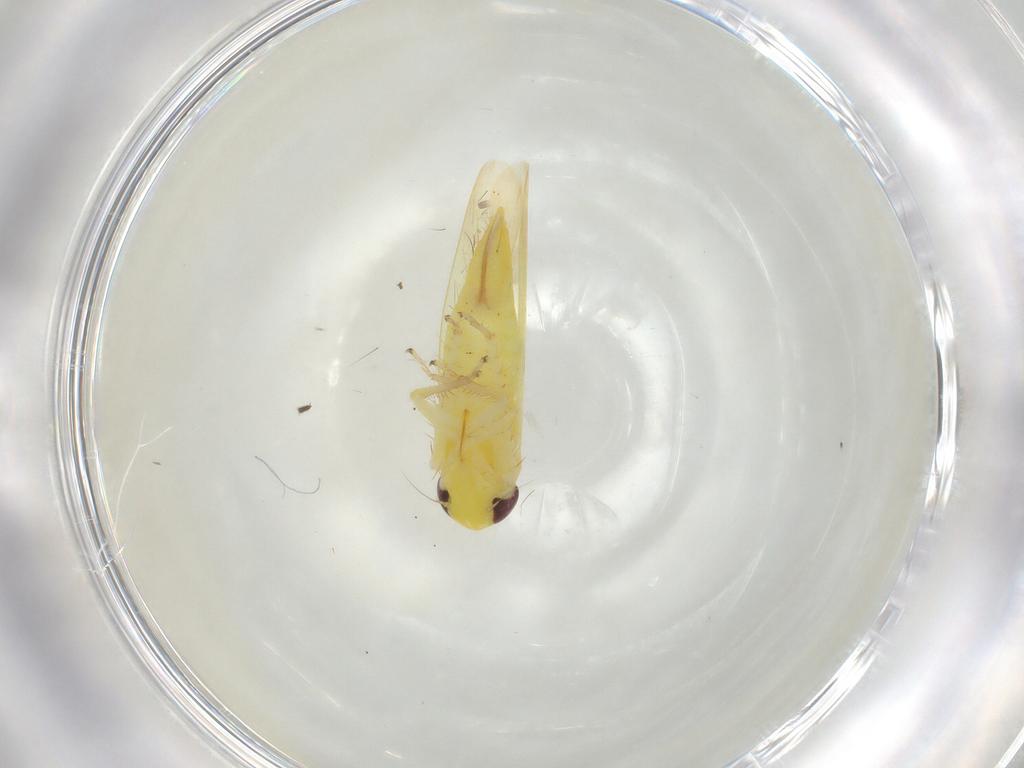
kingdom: Animalia
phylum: Arthropoda
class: Insecta
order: Hemiptera
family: Cicadellidae
